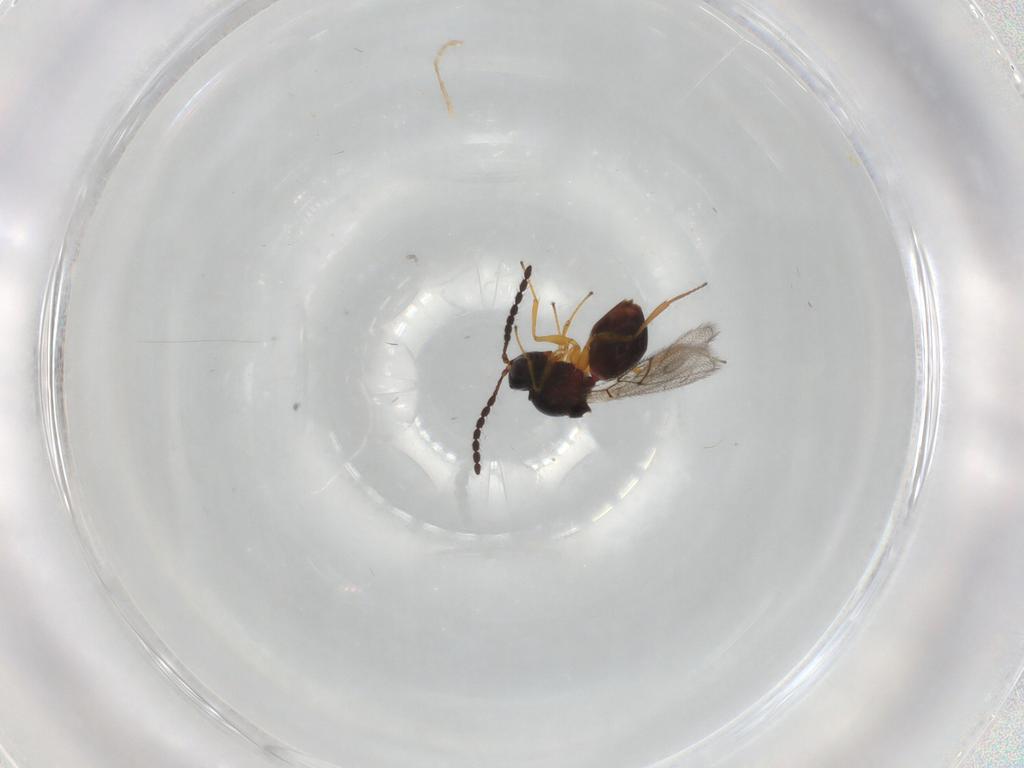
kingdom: Animalia
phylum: Arthropoda
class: Insecta
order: Hymenoptera
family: Figitidae
